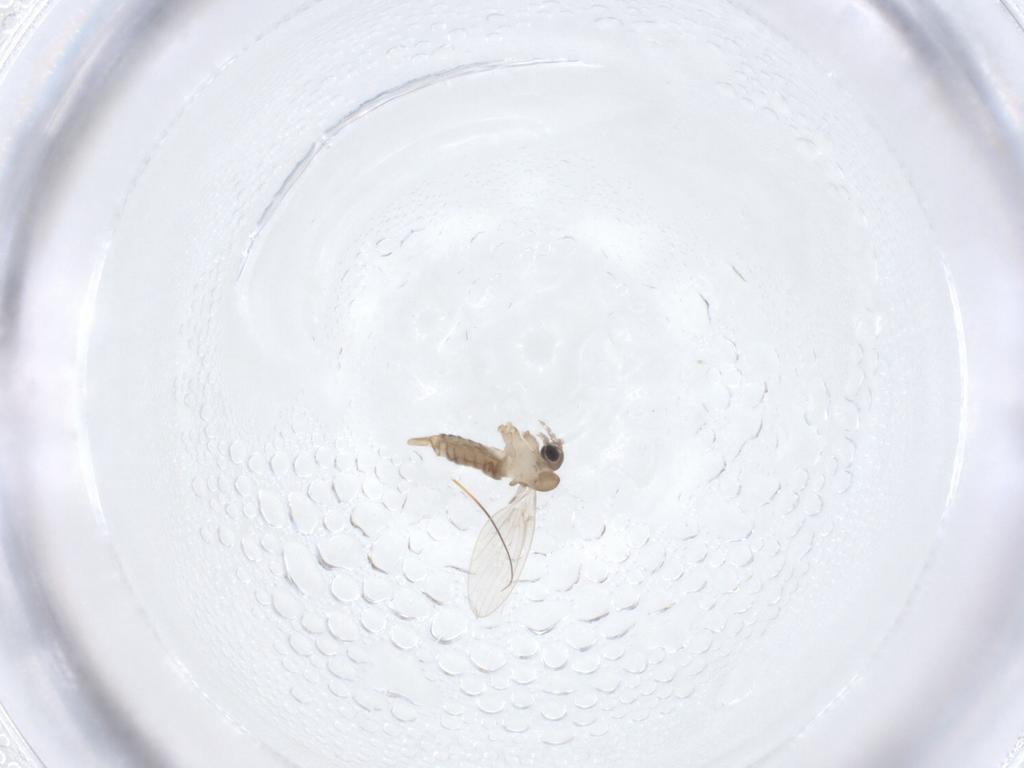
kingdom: Animalia
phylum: Arthropoda
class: Insecta
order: Diptera
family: Psychodidae
